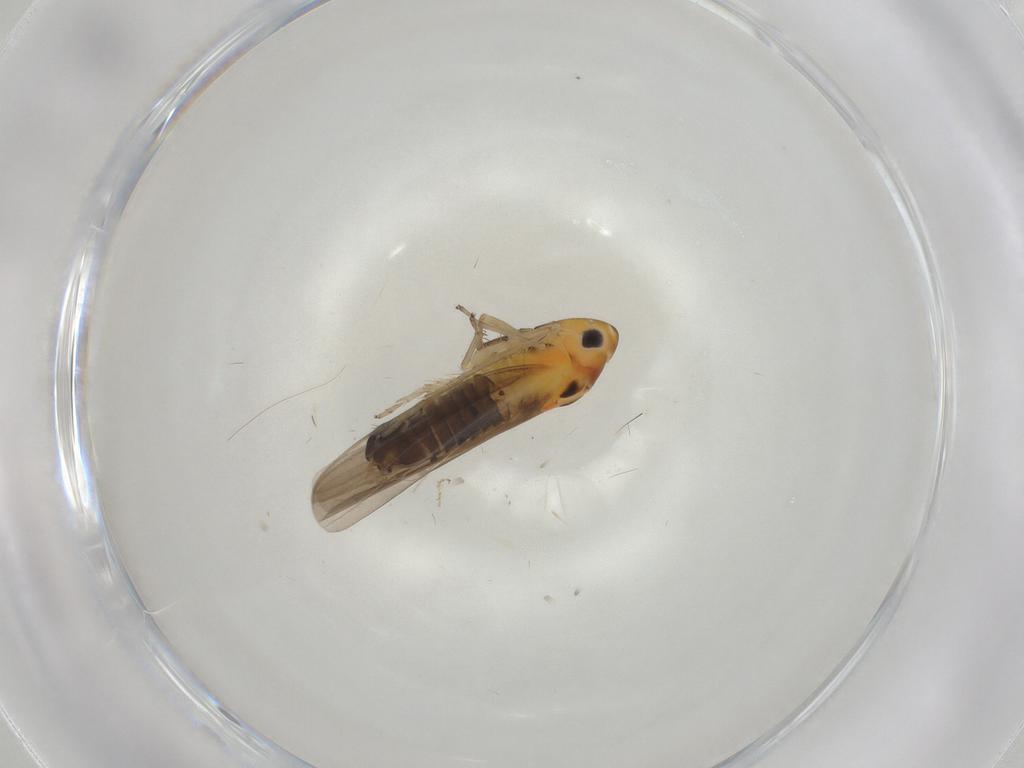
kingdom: Animalia
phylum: Arthropoda
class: Insecta
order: Hemiptera
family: Cicadellidae
